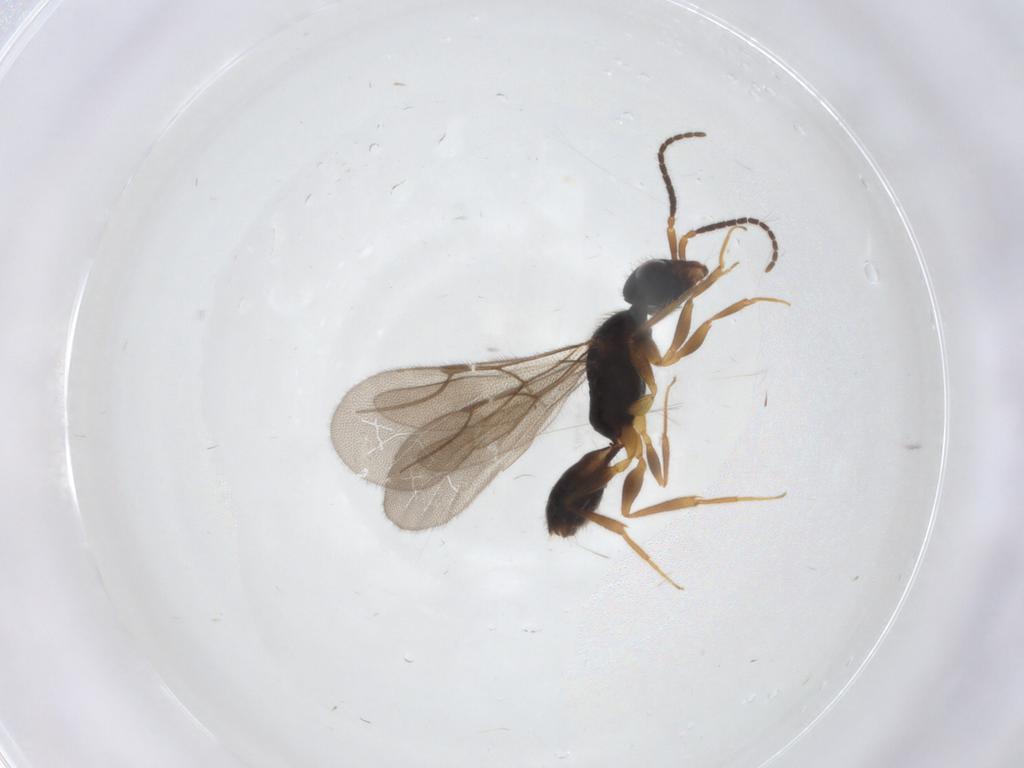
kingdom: Animalia
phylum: Arthropoda
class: Insecta
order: Hymenoptera
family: Bethylidae
